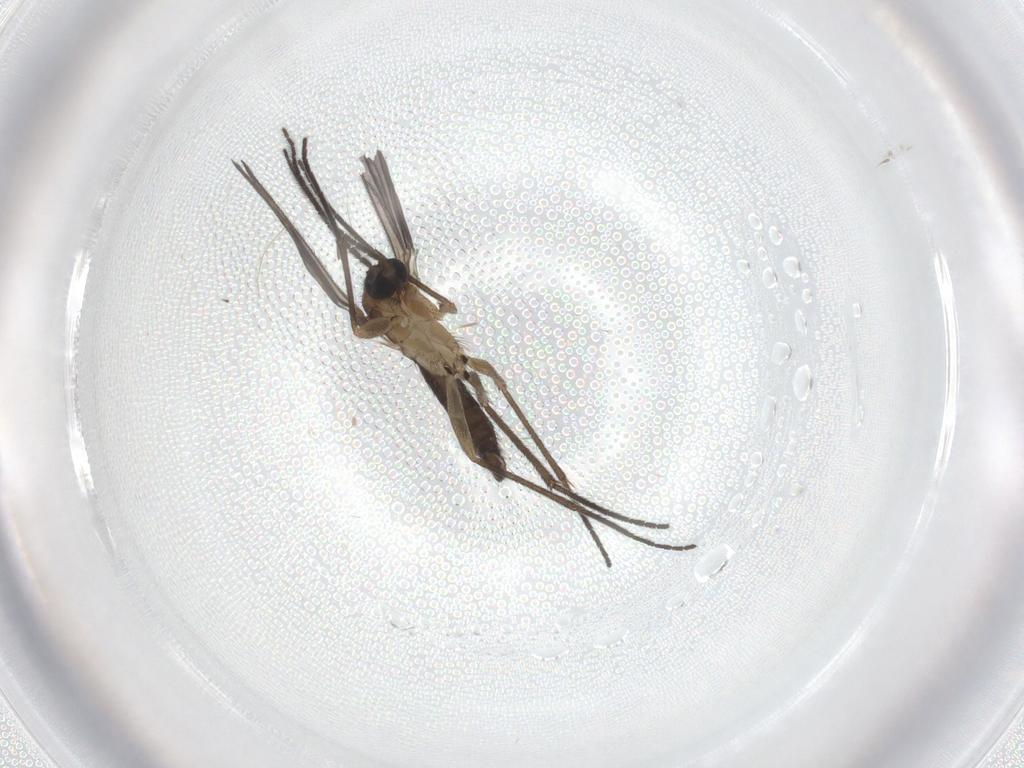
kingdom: Animalia
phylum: Arthropoda
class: Insecta
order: Diptera
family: Sciaridae
